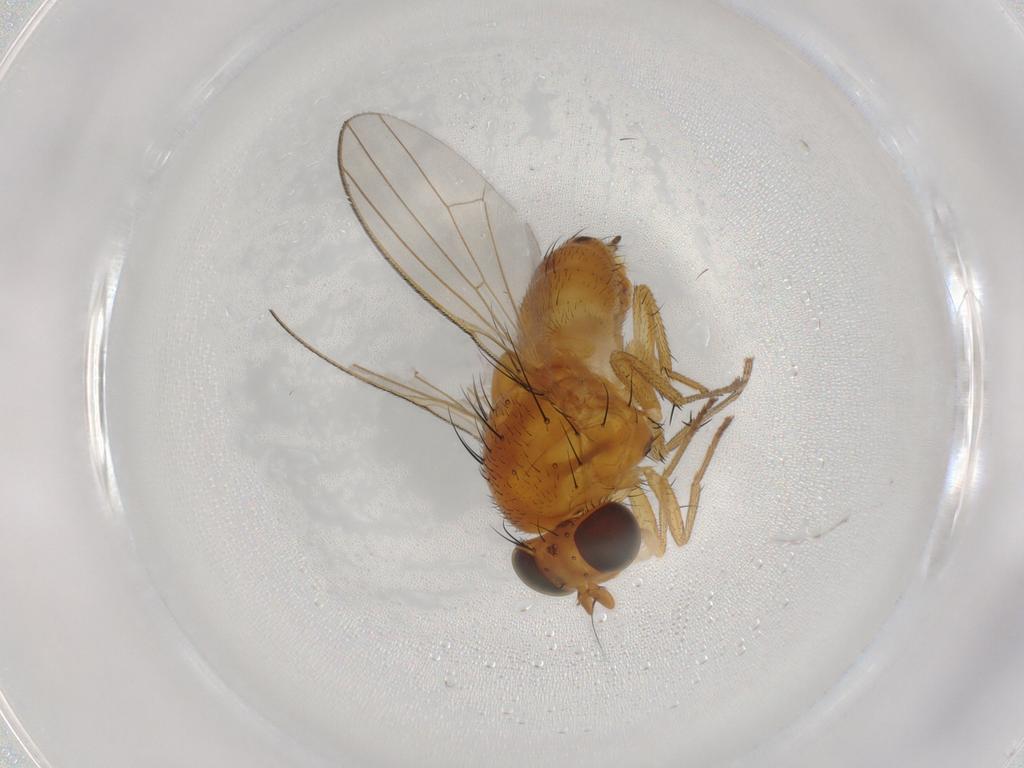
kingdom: Animalia
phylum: Arthropoda
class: Insecta
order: Diptera
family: Lauxaniidae
